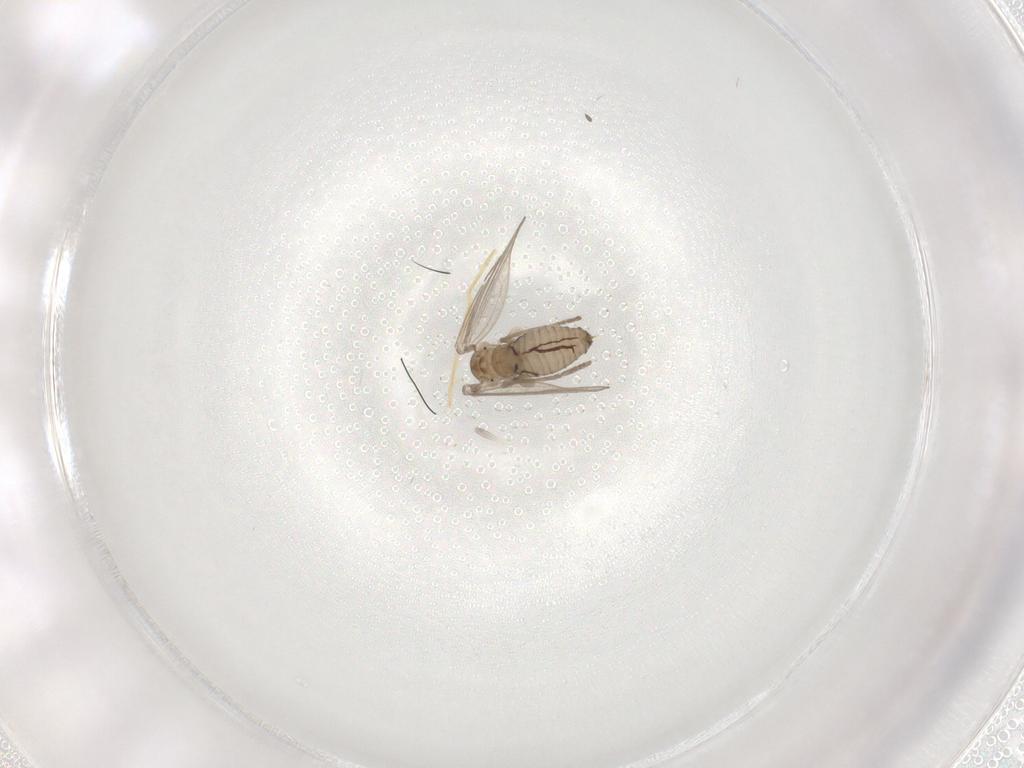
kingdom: Animalia
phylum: Arthropoda
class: Insecta
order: Diptera
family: Psychodidae
